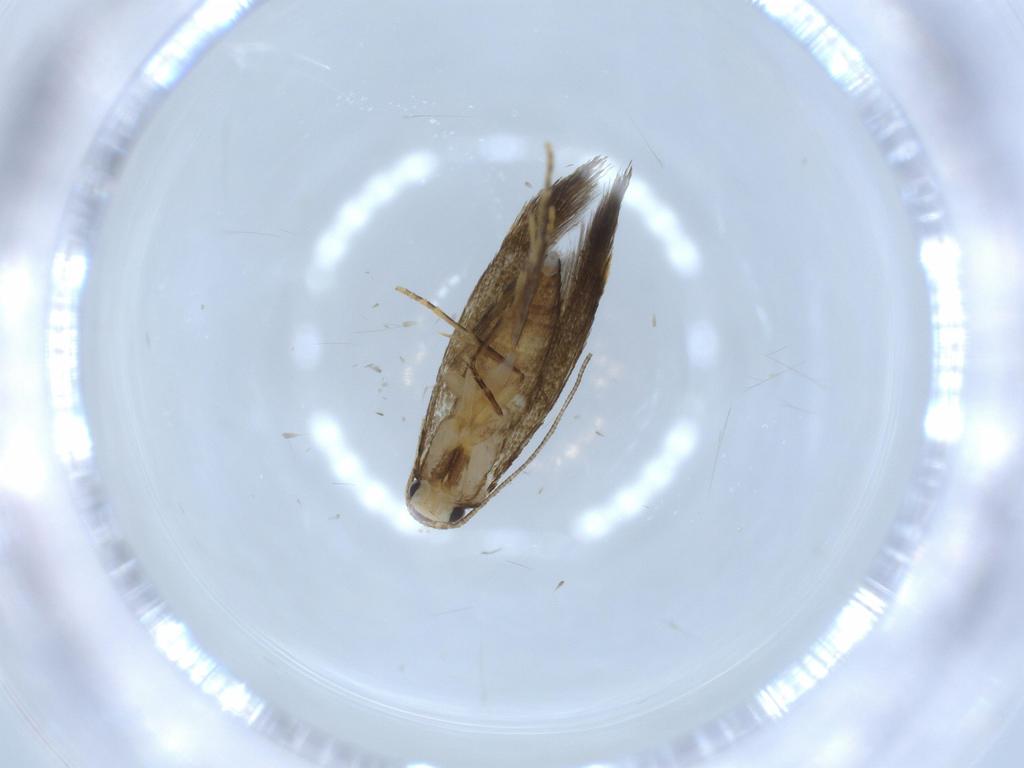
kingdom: Animalia
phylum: Arthropoda
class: Insecta
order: Lepidoptera
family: Tineidae
